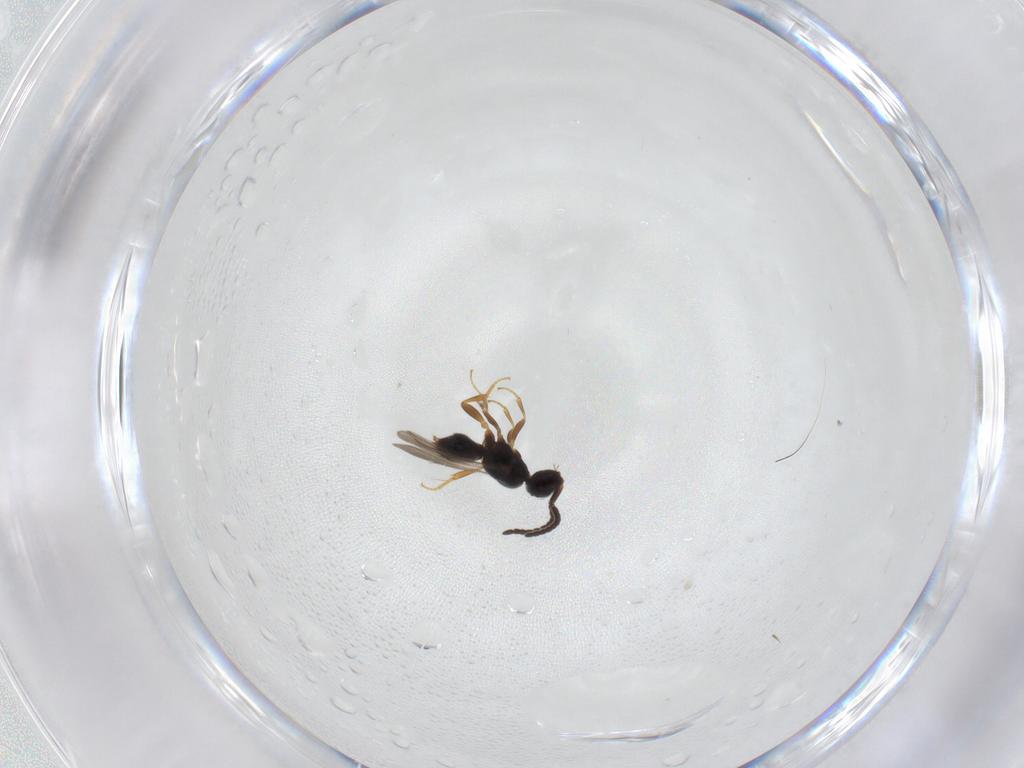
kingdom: Animalia
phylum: Arthropoda
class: Insecta
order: Hymenoptera
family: Ceraphronidae
